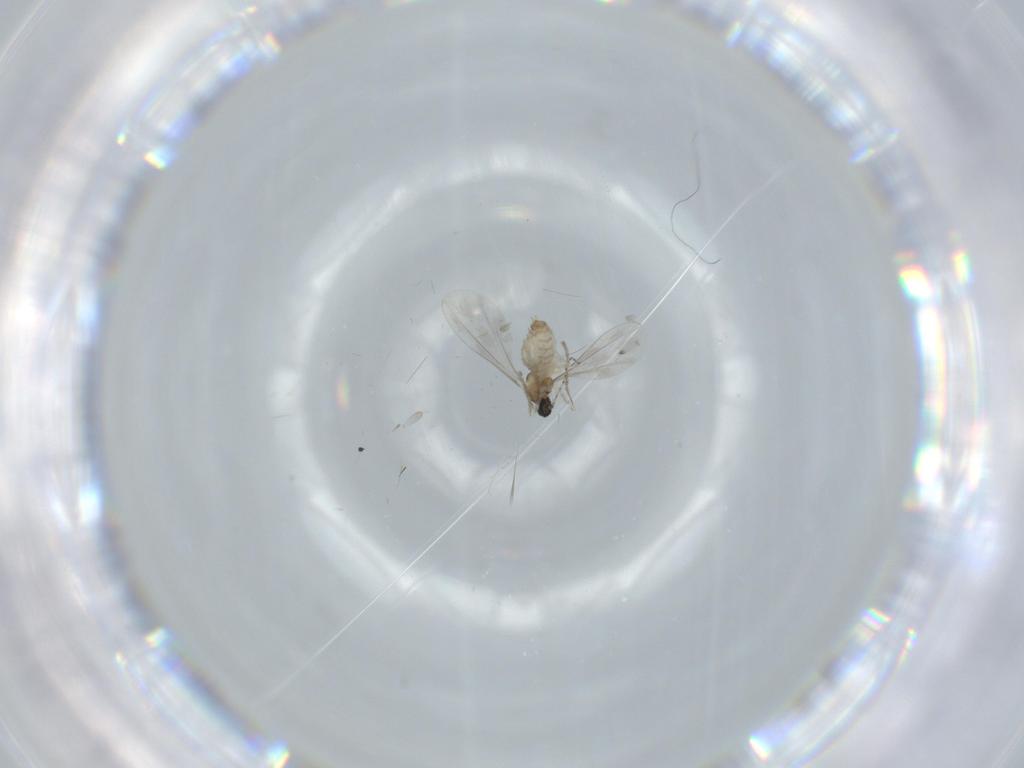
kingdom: Animalia
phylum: Arthropoda
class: Insecta
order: Diptera
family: Cecidomyiidae
